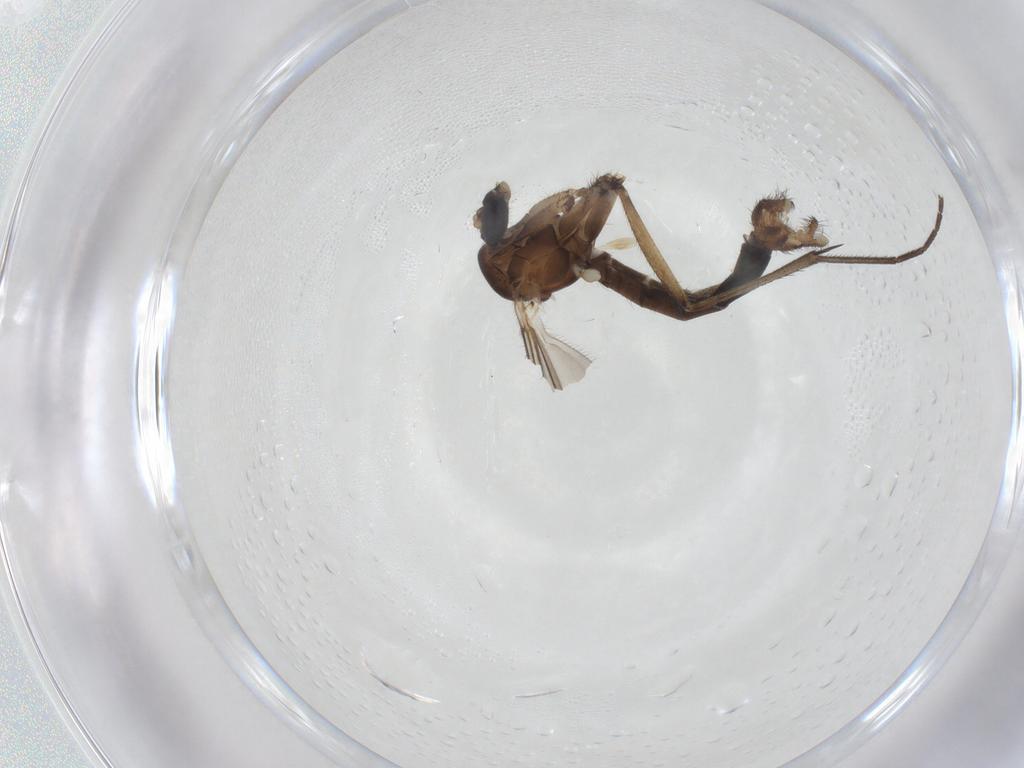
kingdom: Animalia
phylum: Arthropoda
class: Insecta
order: Diptera
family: Mycetophilidae
